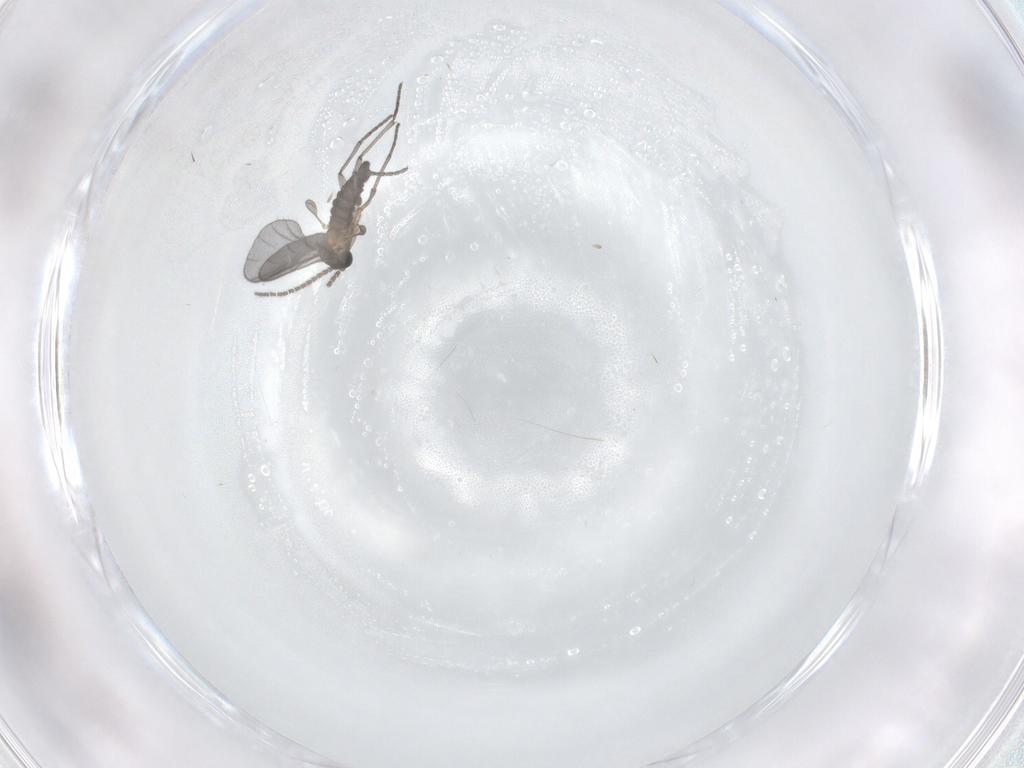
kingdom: Animalia
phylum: Arthropoda
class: Insecta
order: Diptera
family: Sciaridae
